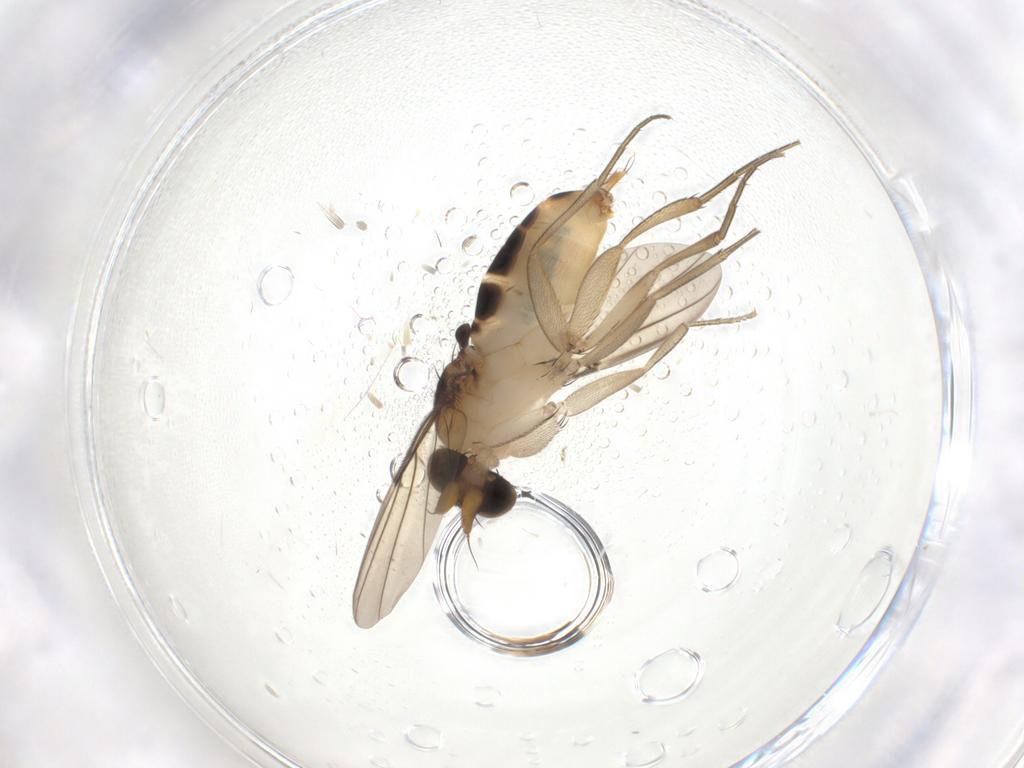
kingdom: Animalia
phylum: Arthropoda
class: Insecta
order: Diptera
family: Phoridae
